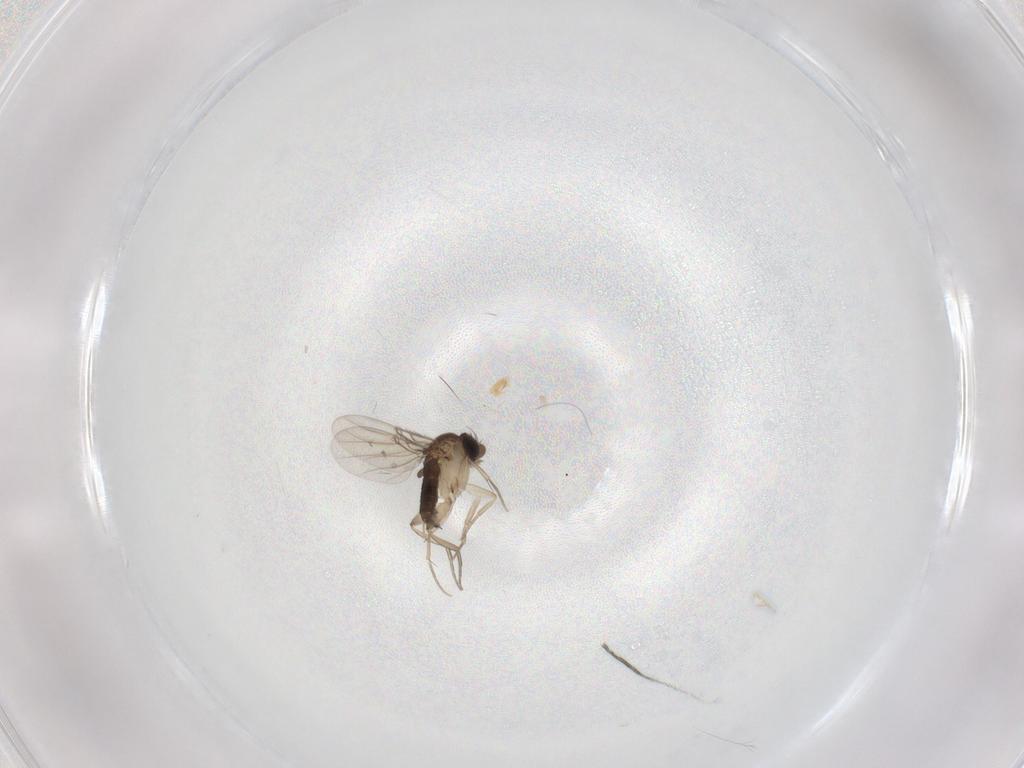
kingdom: Animalia
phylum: Arthropoda
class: Insecta
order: Diptera
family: Phoridae
